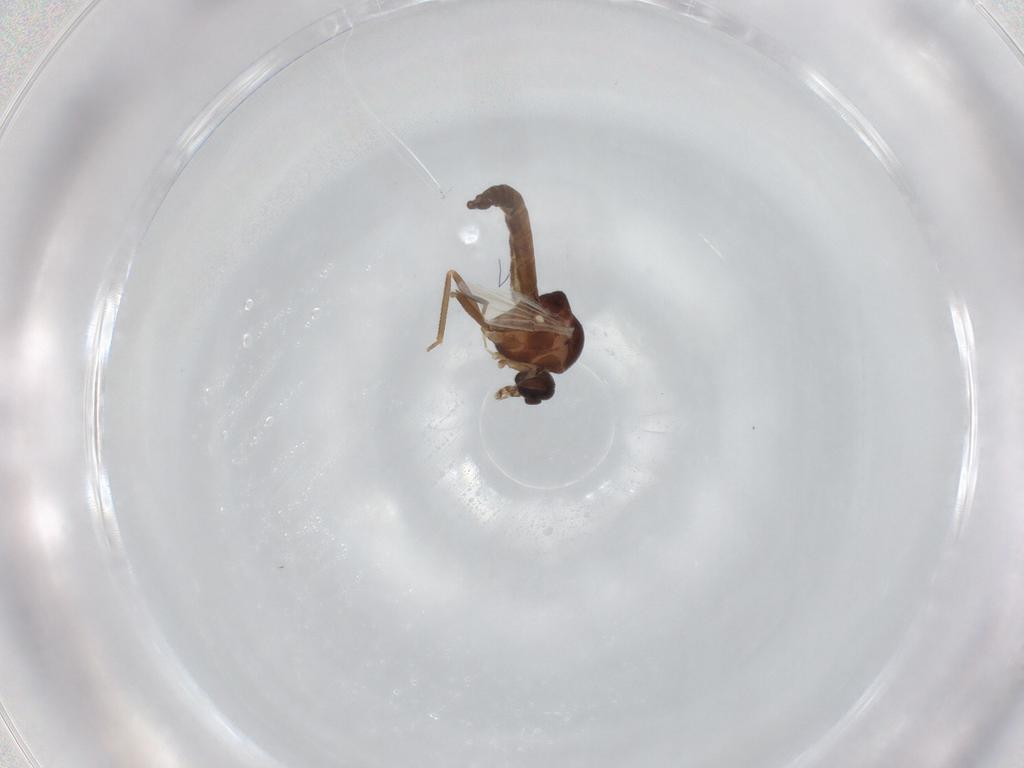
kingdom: Animalia
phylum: Arthropoda
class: Insecta
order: Diptera
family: Ceratopogonidae
